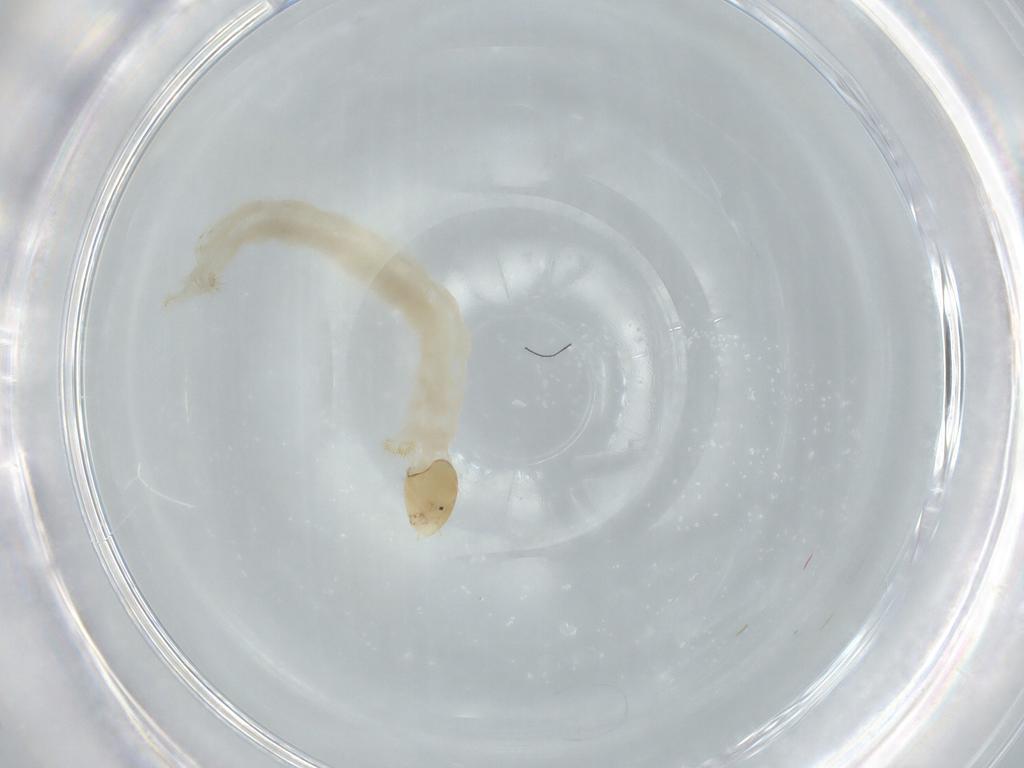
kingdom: Animalia
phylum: Arthropoda
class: Insecta
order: Diptera
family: Chironomidae
